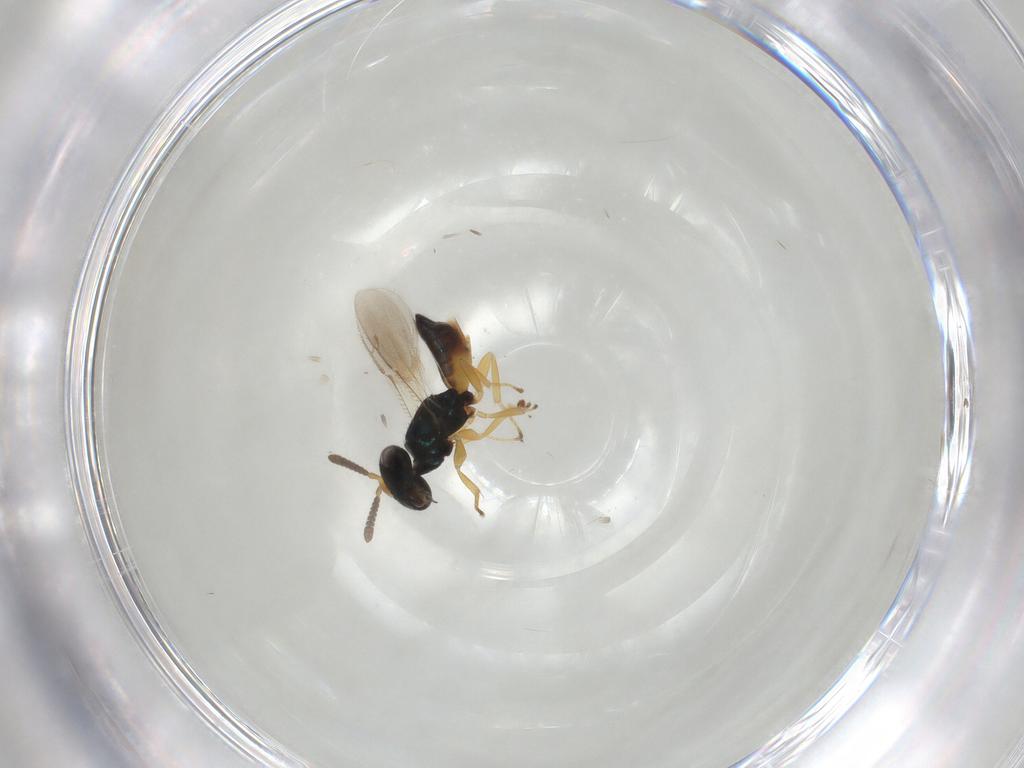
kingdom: Animalia
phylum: Arthropoda
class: Insecta
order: Hymenoptera
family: Pteromalidae
